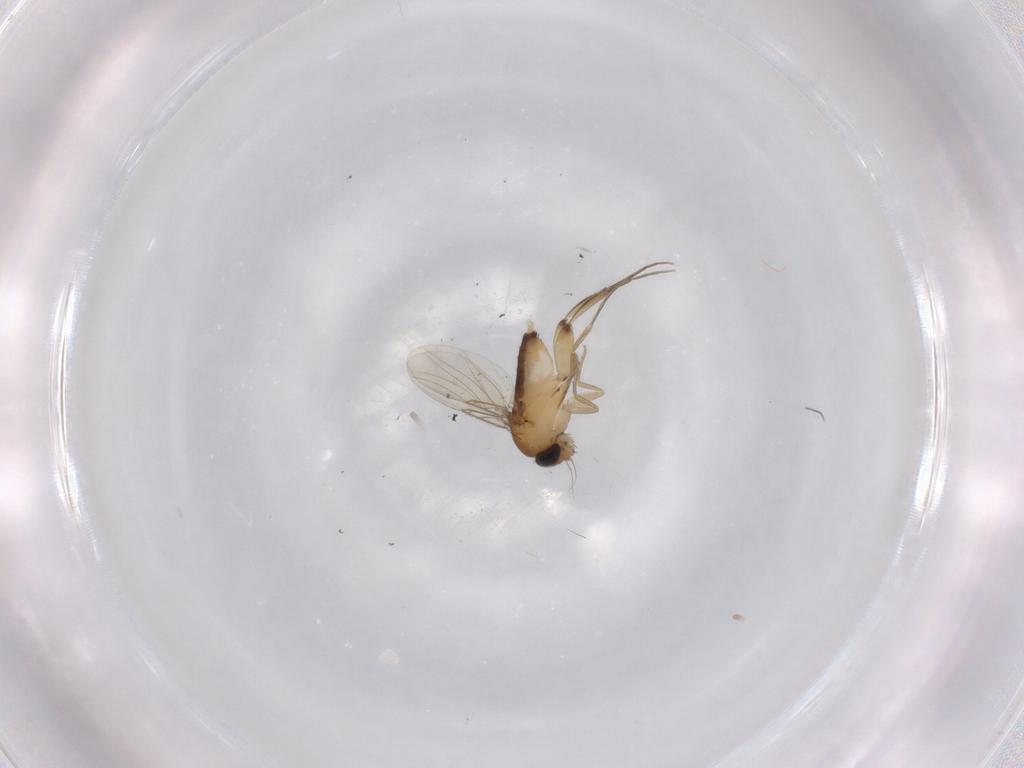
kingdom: Animalia
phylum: Arthropoda
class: Insecta
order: Diptera
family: Phoridae
